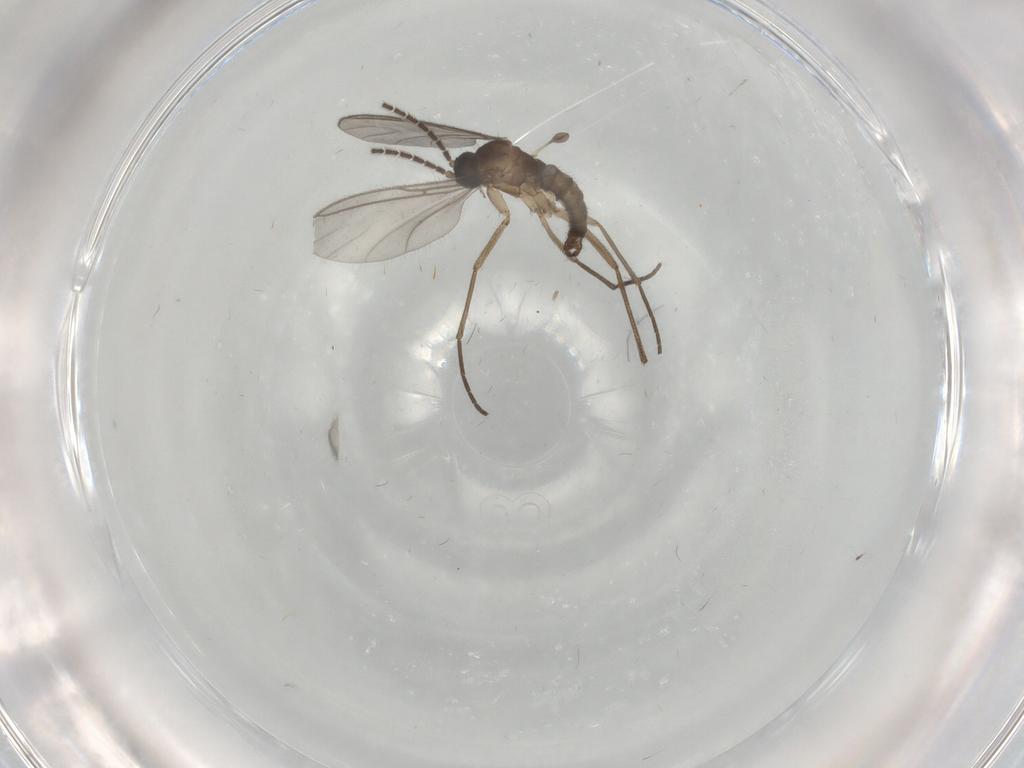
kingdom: Animalia
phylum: Arthropoda
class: Insecta
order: Diptera
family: Sciaridae
